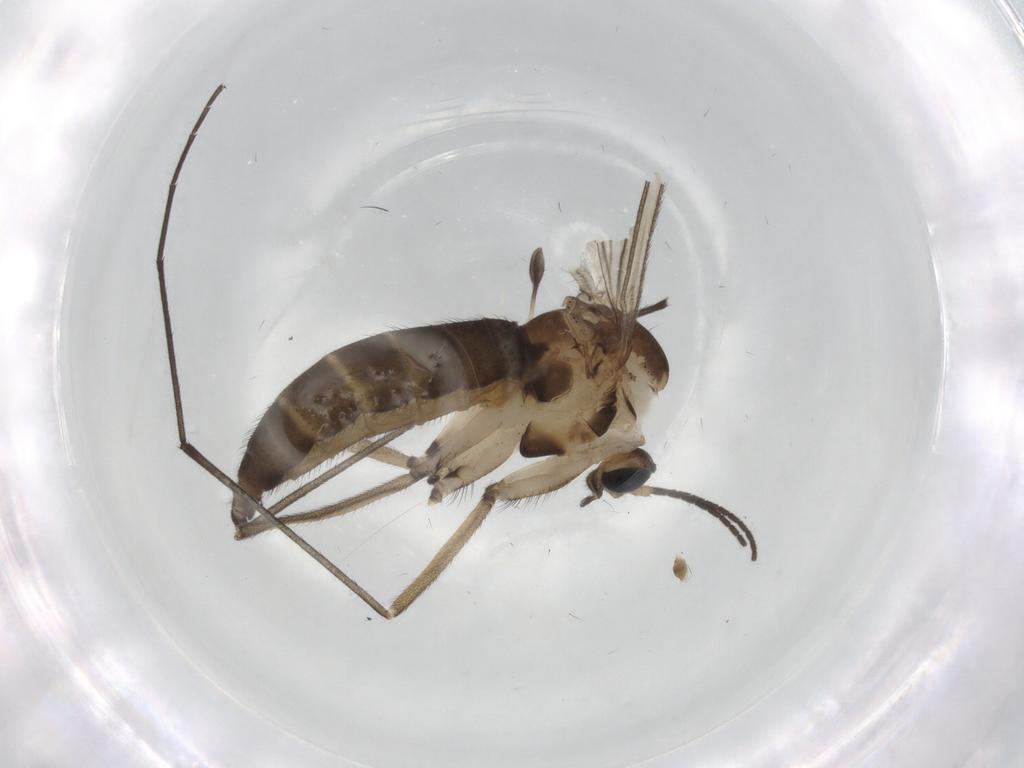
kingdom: Animalia
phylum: Arthropoda
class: Insecta
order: Diptera
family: Sciaridae
